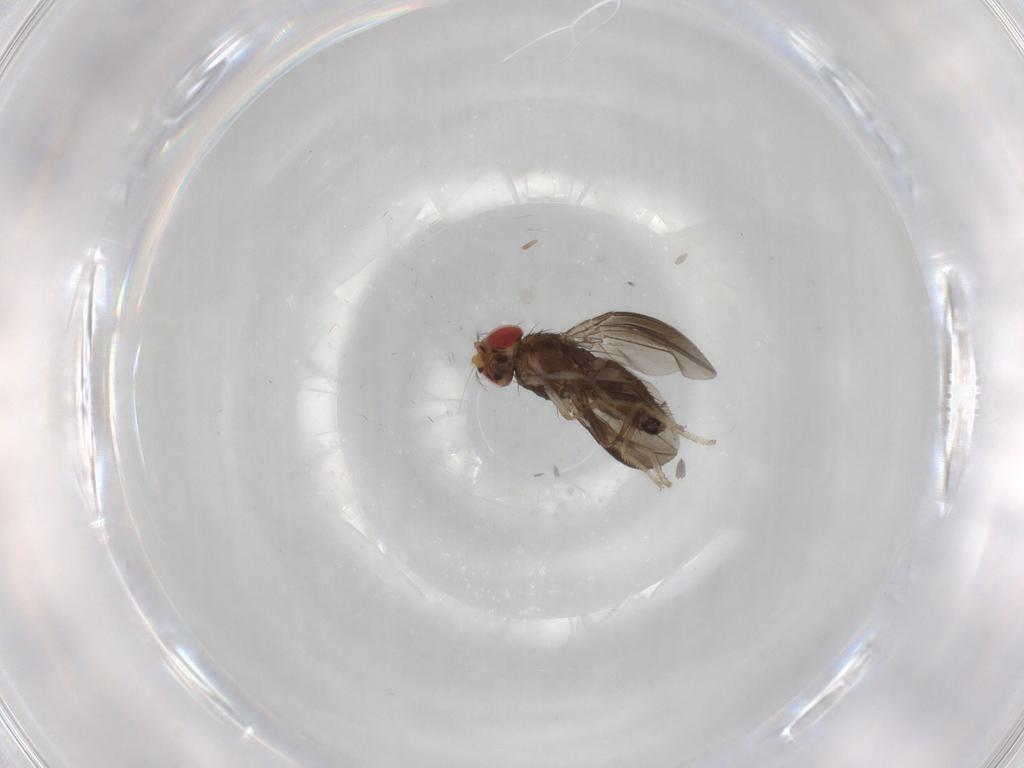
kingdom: Animalia
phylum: Arthropoda
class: Insecta
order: Diptera
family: Drosophilidae
